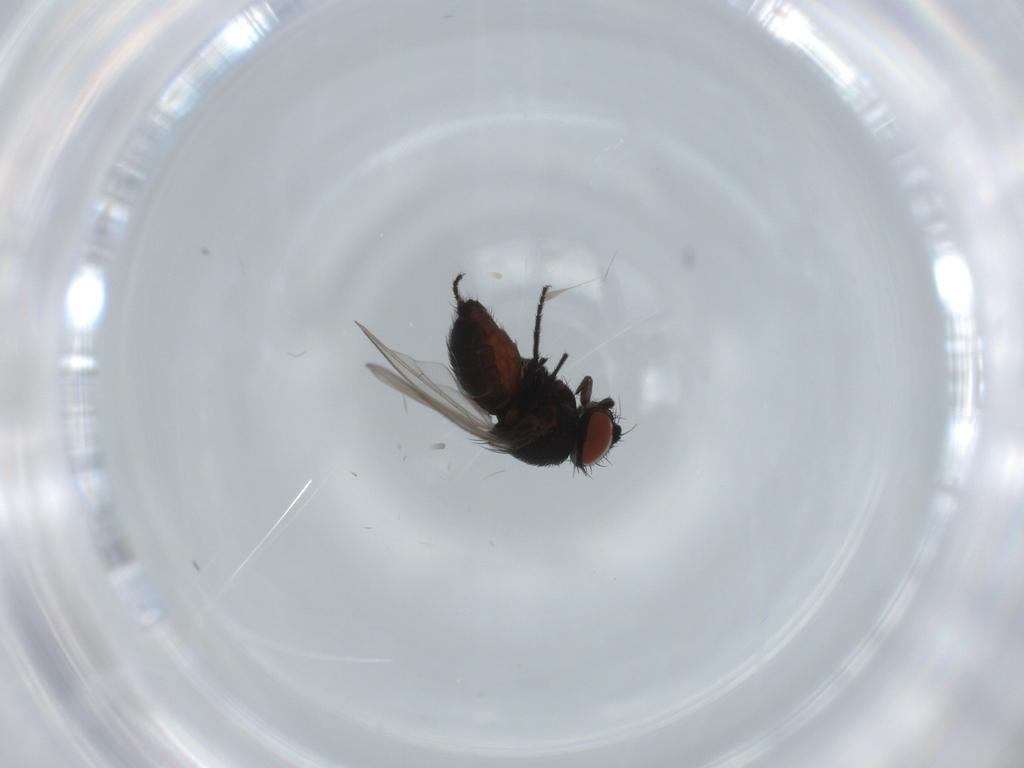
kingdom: Animalia
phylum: Arthropoda
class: Insecta
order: Diptera
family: Milichiidae
